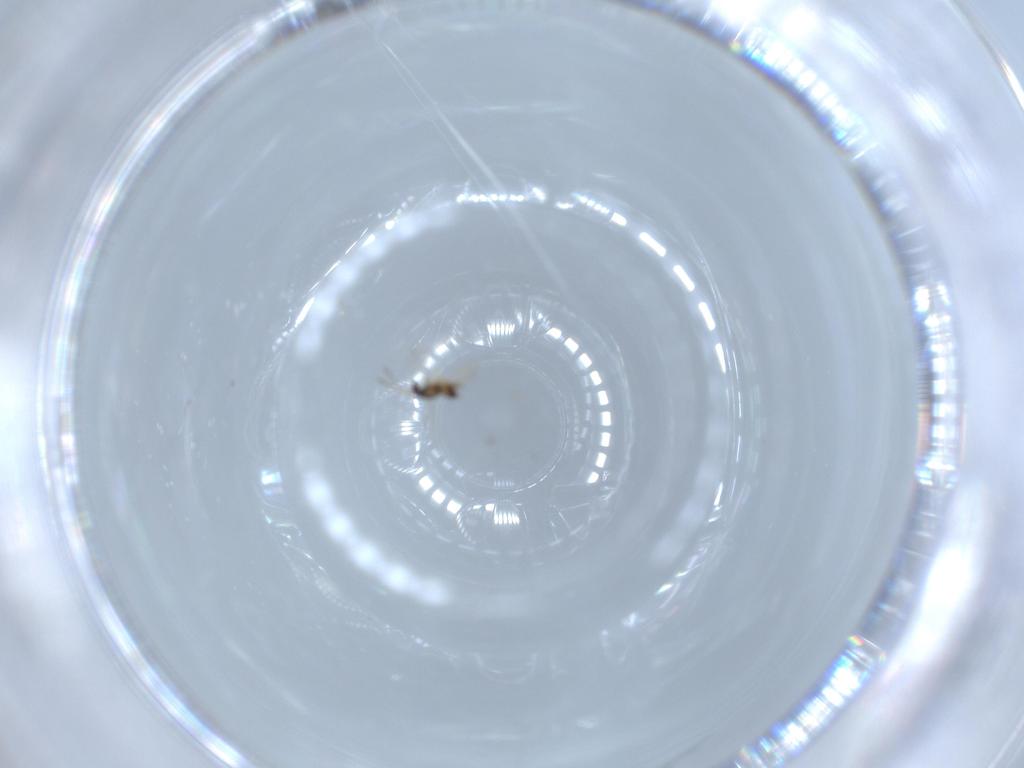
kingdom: Animalia
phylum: Arthropoda
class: Insecta
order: Hymenoptera
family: Mymaridae
